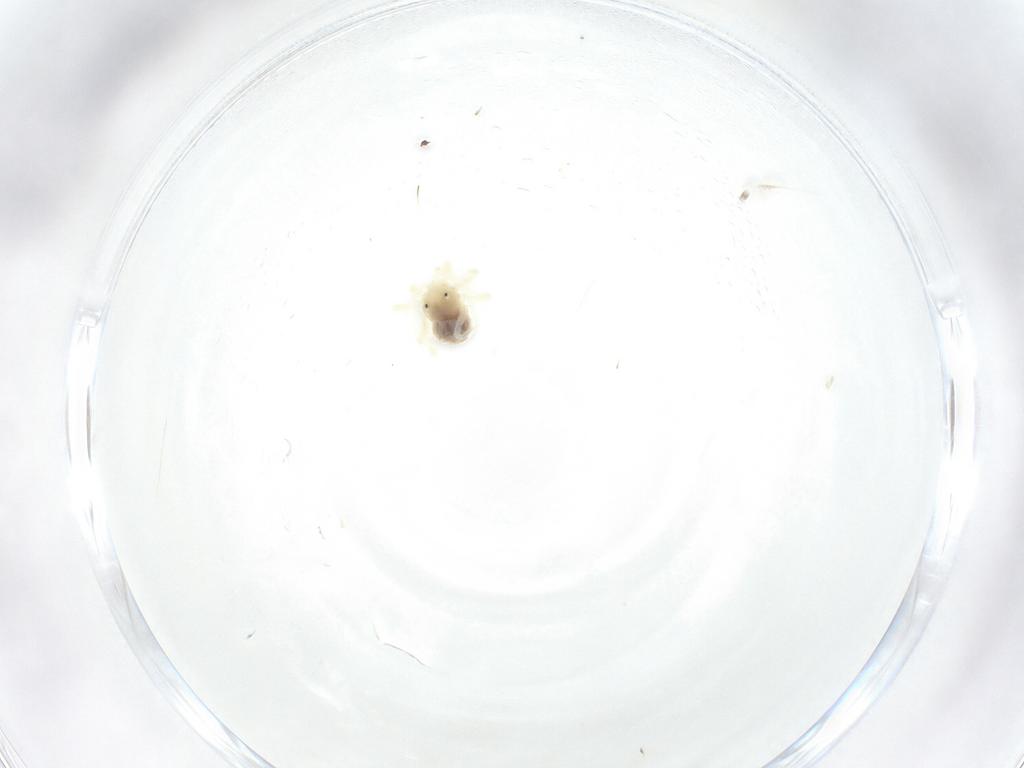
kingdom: Animalia
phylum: Arthropoda
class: Arachnida
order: Trombidiformes
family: Anystidae
